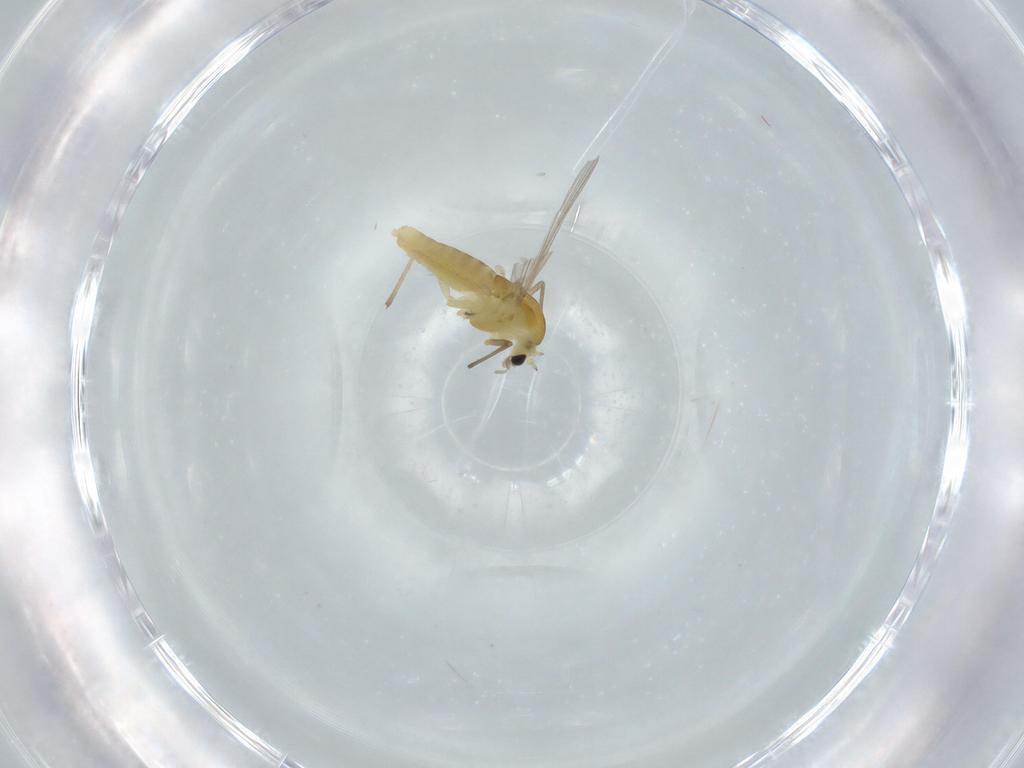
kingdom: Animalia
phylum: Arthropoda
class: Insecta
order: Diptera
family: Chironomidae
